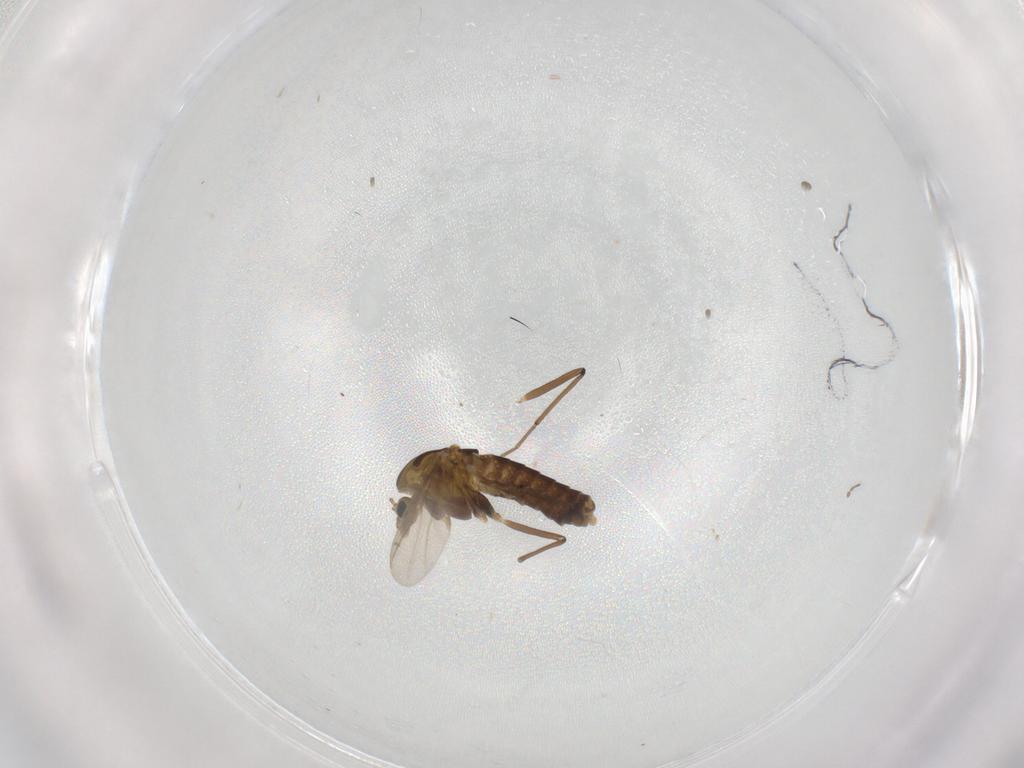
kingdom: Animalia
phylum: Arthropoda
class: Insecta
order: Diptera
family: Chironomidae
